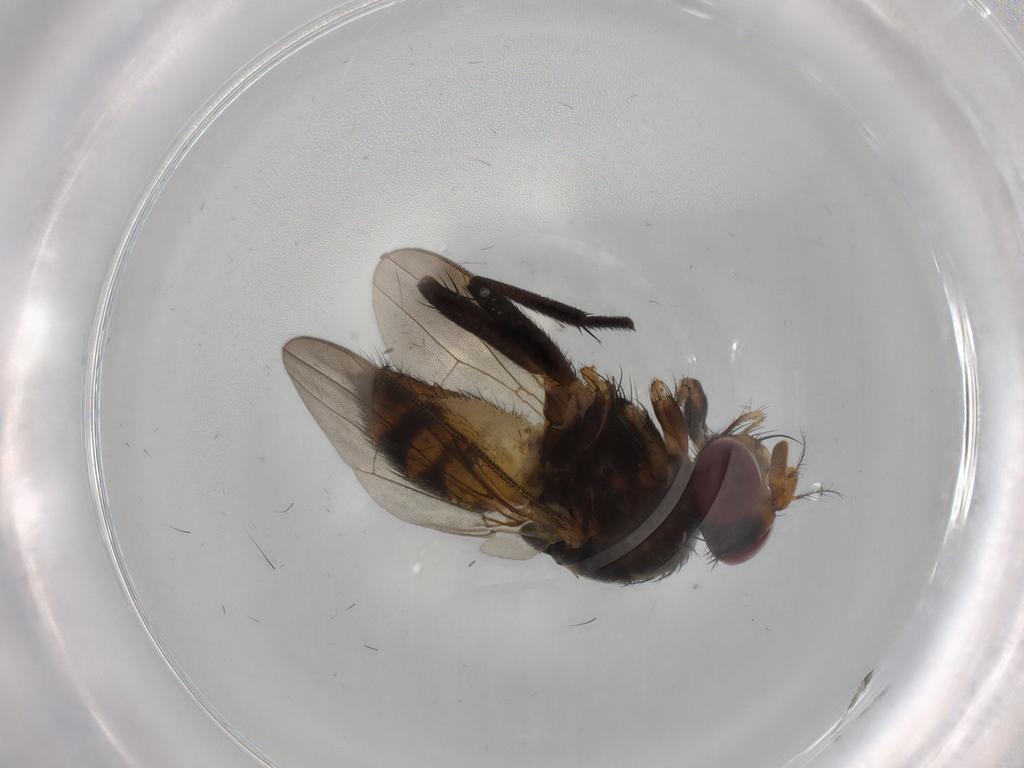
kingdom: Animalia
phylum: Arthropoda
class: Insecta
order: Diptera
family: Anthomyiidae
